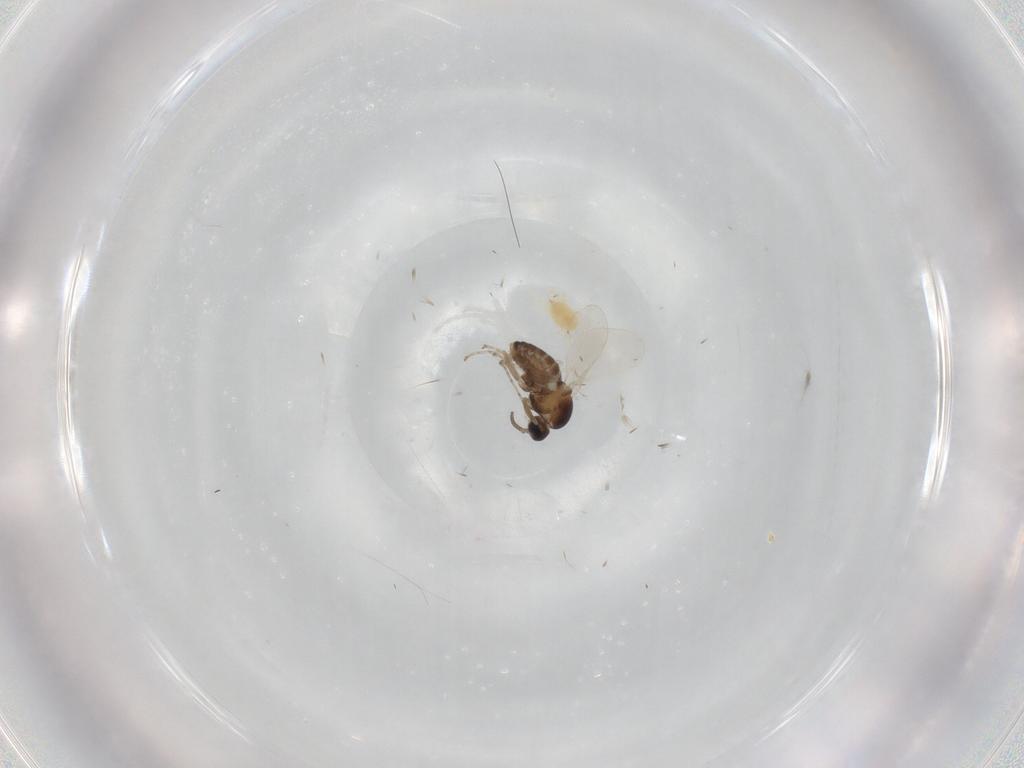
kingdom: Animalia
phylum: Arthropoda
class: Insecta
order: Diptera
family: Cecidomyiidae
